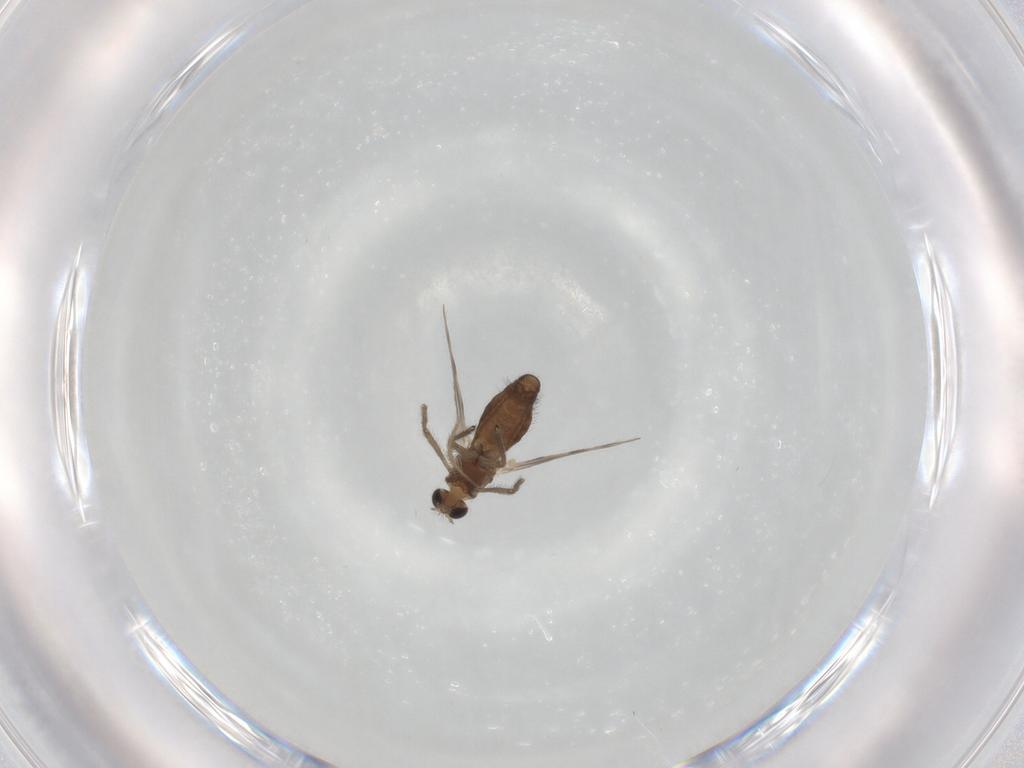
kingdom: Animalia
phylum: Arthropoda
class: Insecta
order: Diptera
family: Chironomidae
